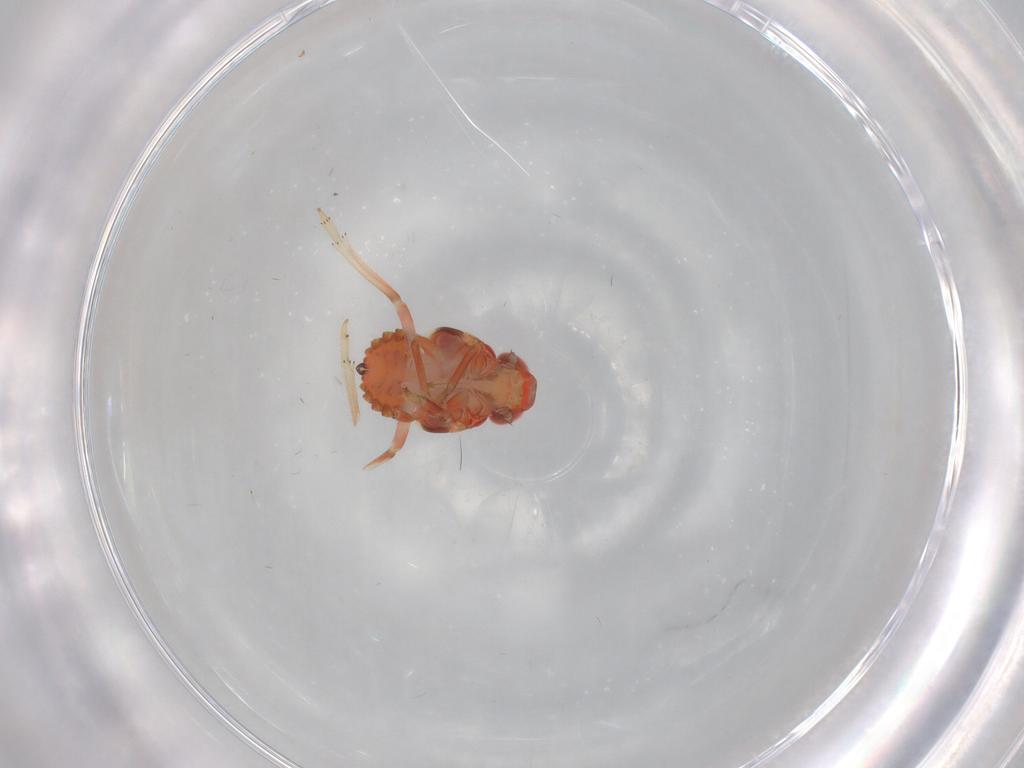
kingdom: Animalia
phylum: Arthropoda
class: Insecta
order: Hemiptera
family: Issidae
